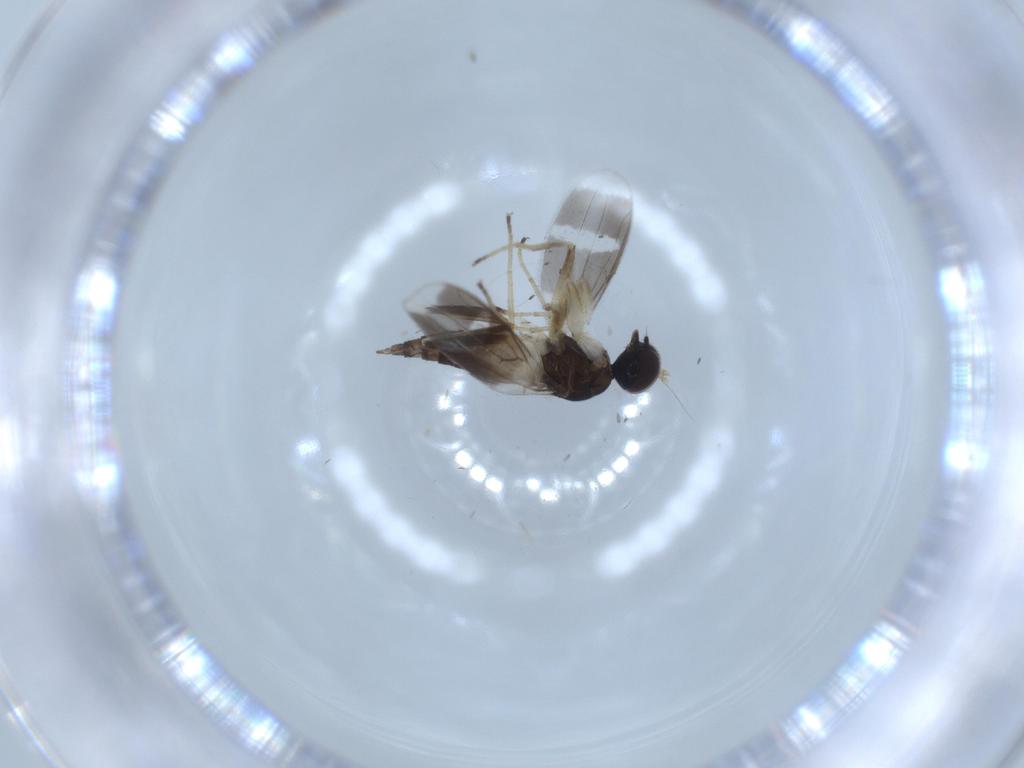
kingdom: Animalia
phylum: Arthropoda
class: Insecta
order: Diptera
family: Hybotidae
